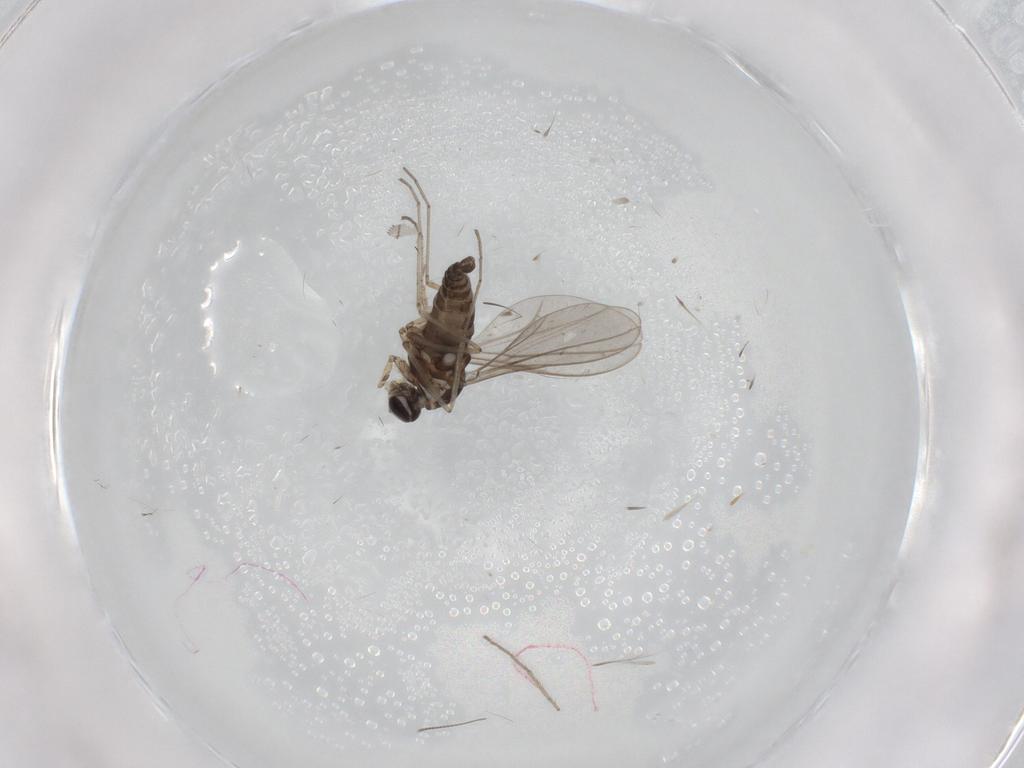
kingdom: Animalia
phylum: Arthropoda
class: Insecta
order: Diptera
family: Cecidomyiidae
